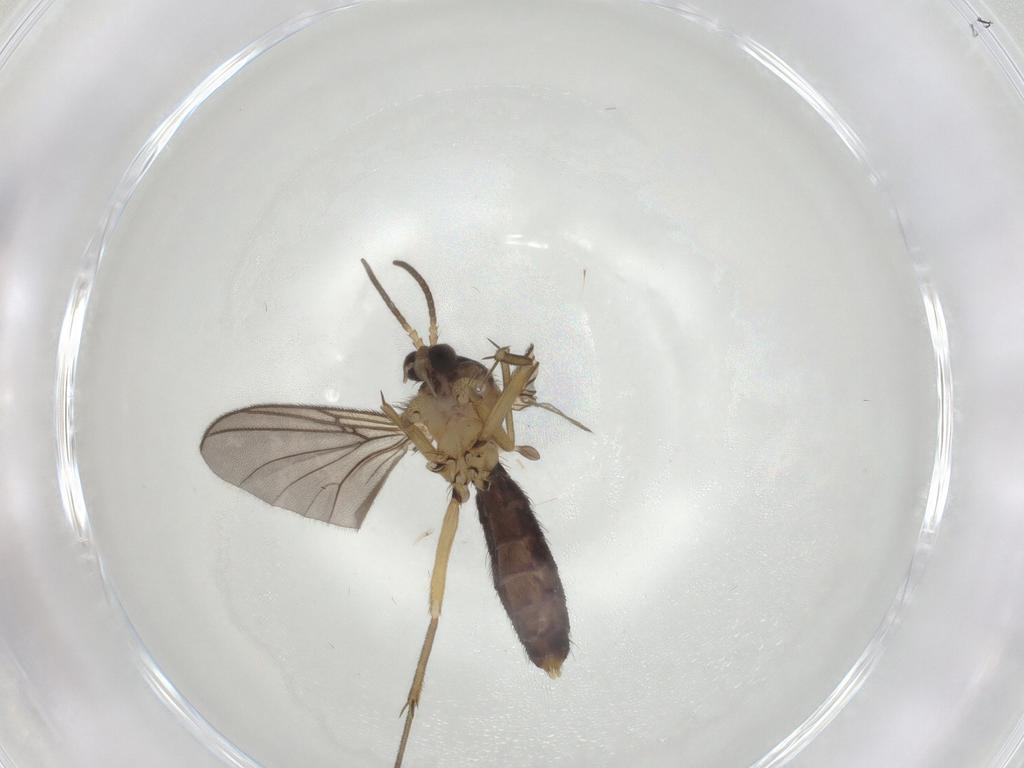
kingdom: Animalia
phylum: Arthropoda
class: Insecta
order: Diptera
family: Mycetophilidae
